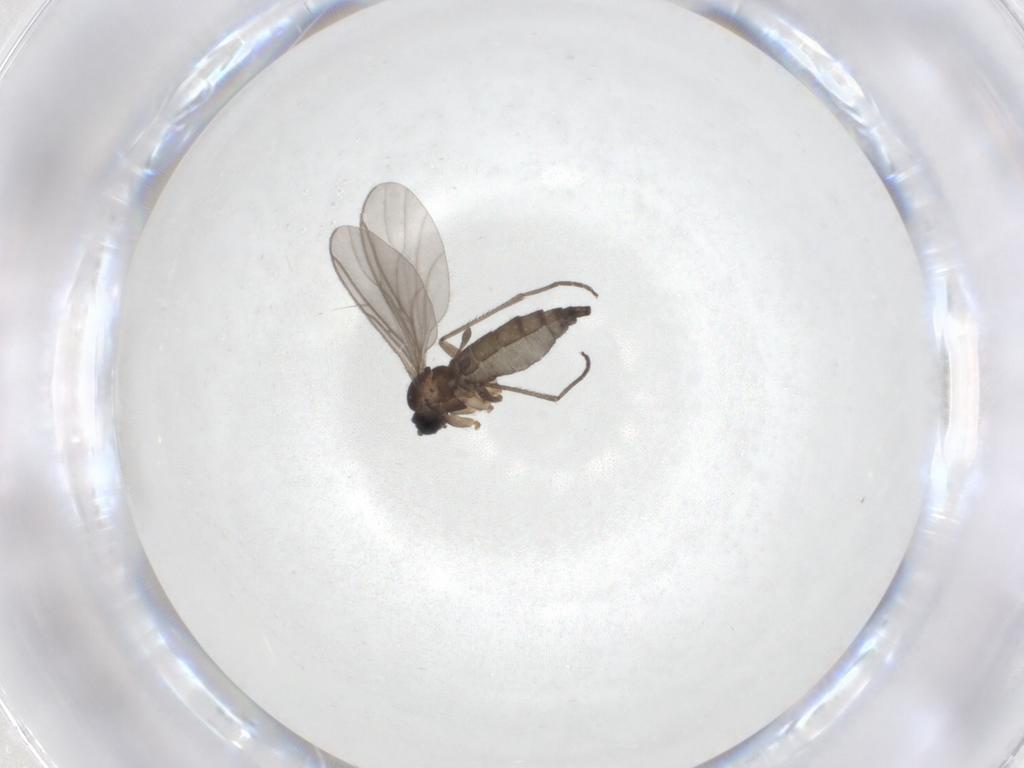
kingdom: Animalia
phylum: Arthropoda
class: Insecta
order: Diptera
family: Sciaridae
